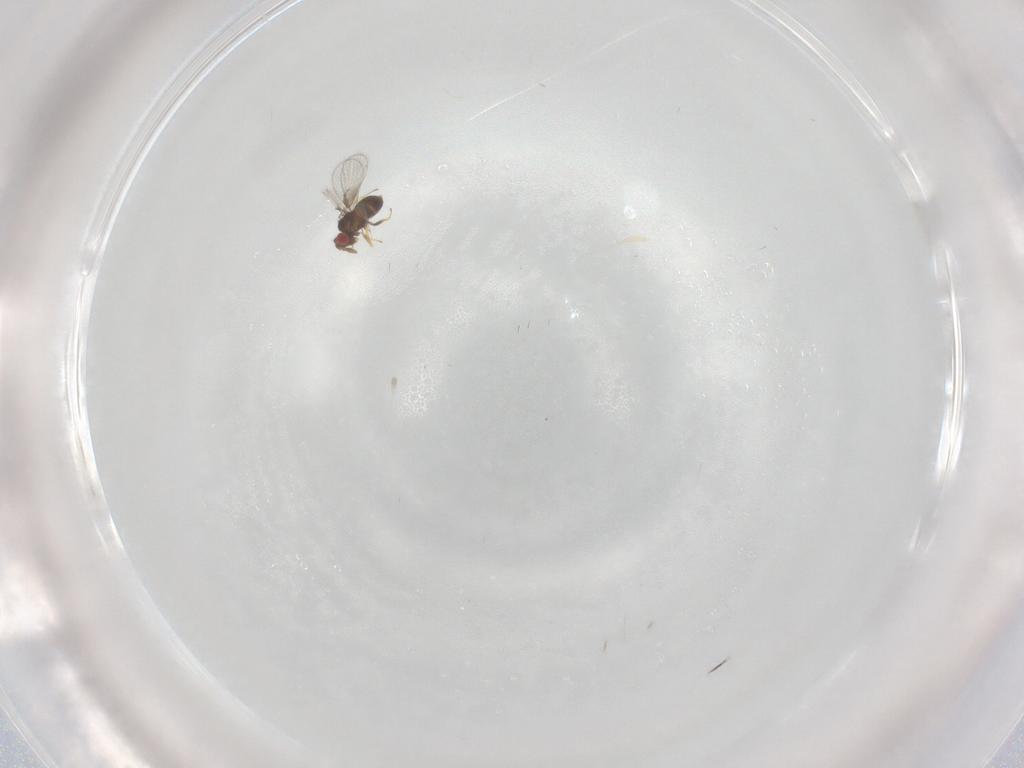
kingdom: Animalia
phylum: Arthropoda
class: Insecta
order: Hymenoptera
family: Trichogrammatidae
